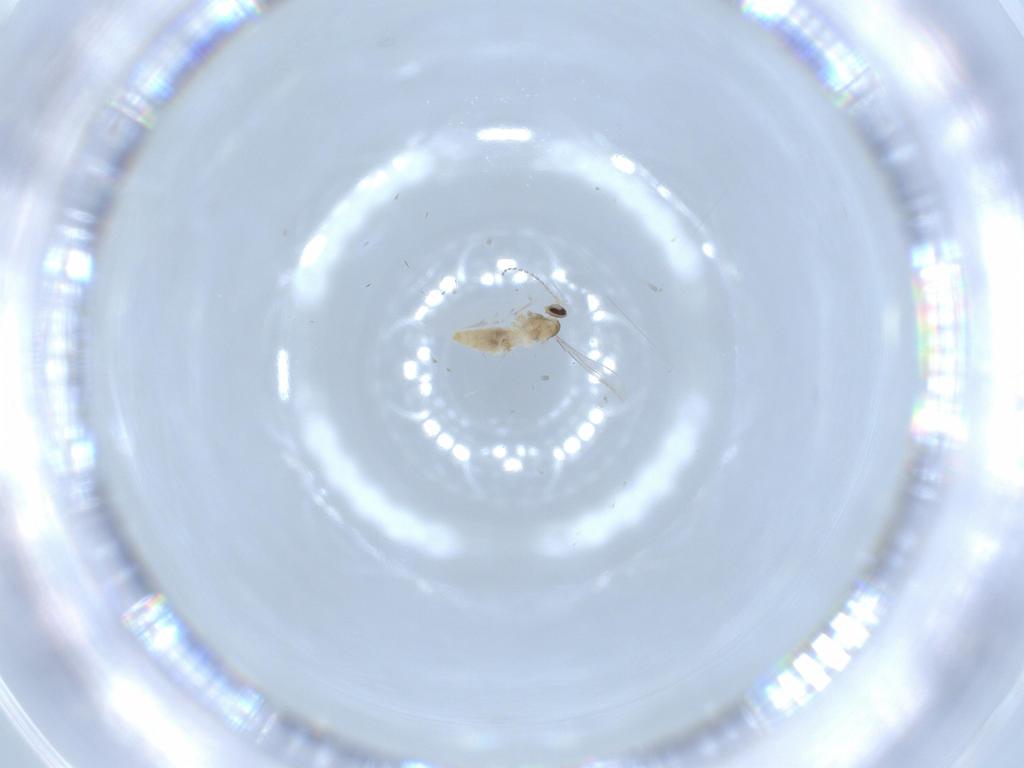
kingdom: Animalia
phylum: Arthropoda
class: Insecta
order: Diptera
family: Cecidomyiidae
